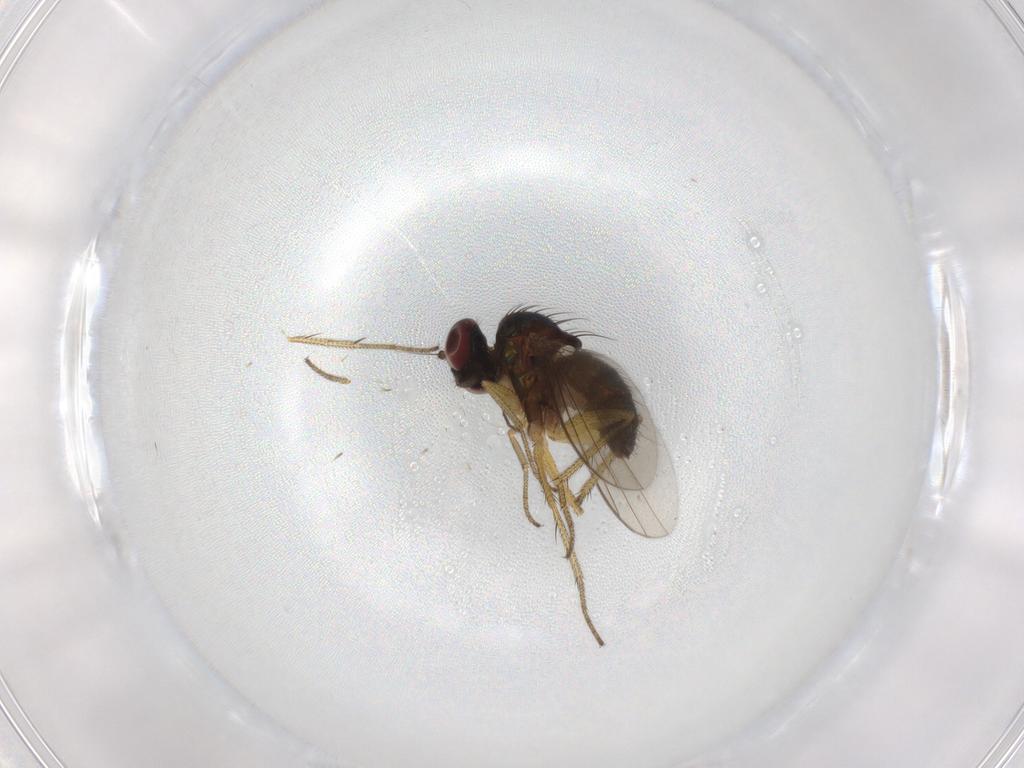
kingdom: Animalia
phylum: Arthropoda
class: Insecta
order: Diptera
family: Dolichopodidae
